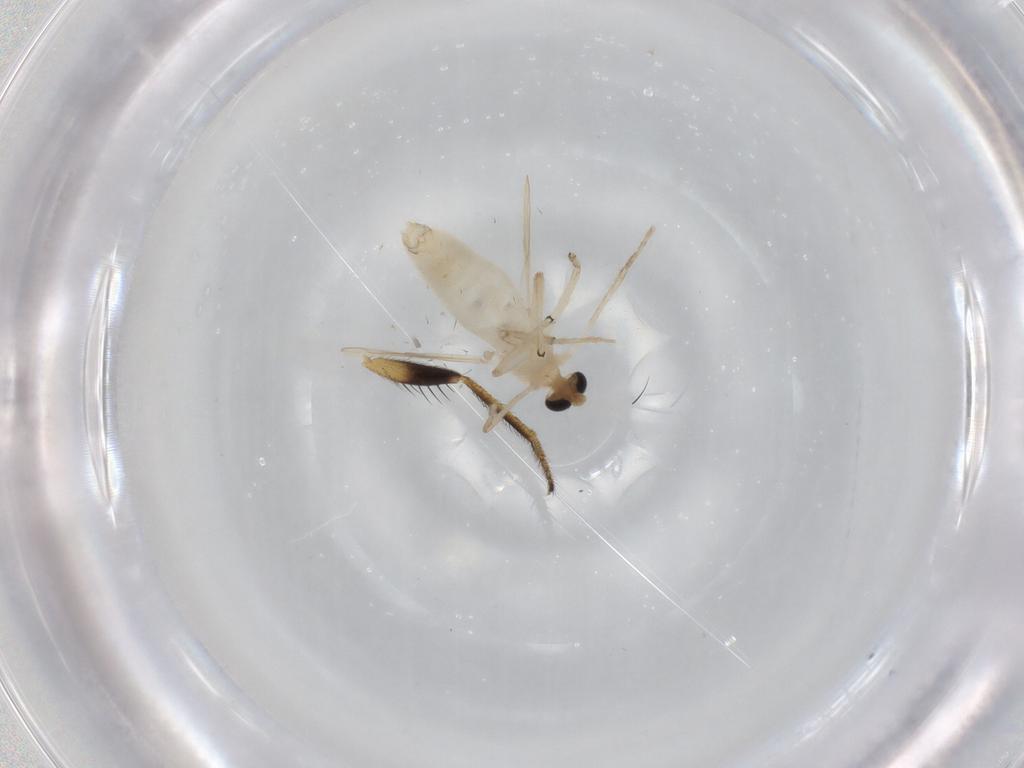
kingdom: Animalia
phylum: Arthropoda
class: Insecta
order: Diptera
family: Chironomidae
